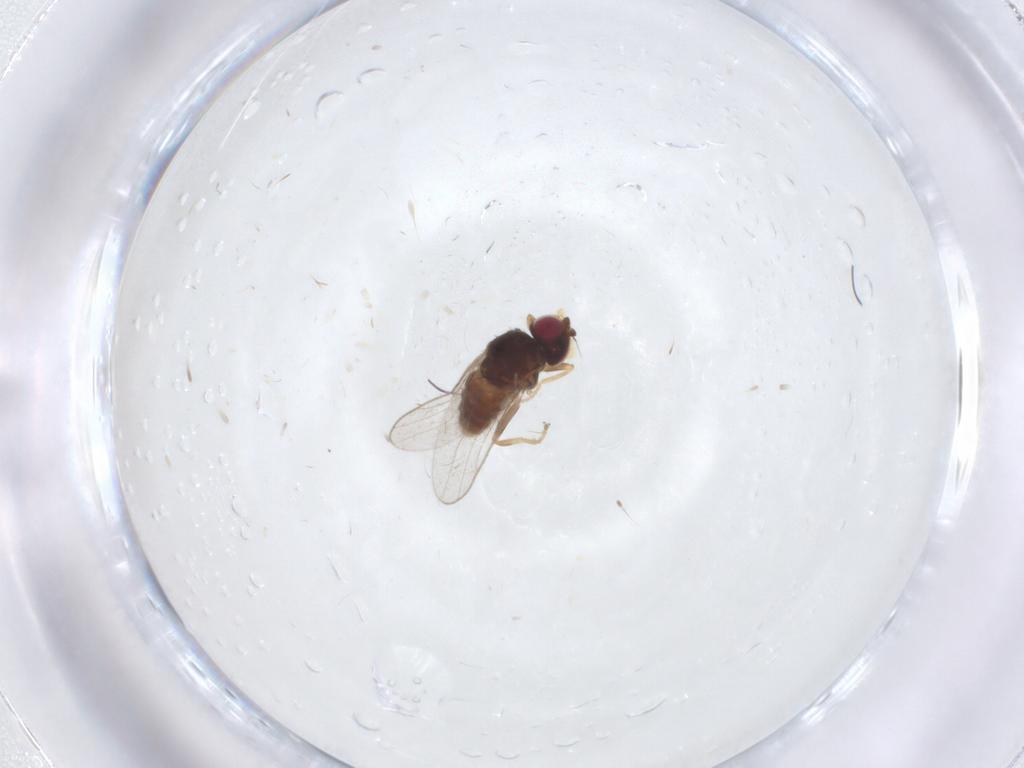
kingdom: Animalia
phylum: Arthropoda
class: Insecta
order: Diptera
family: Chloropidae
